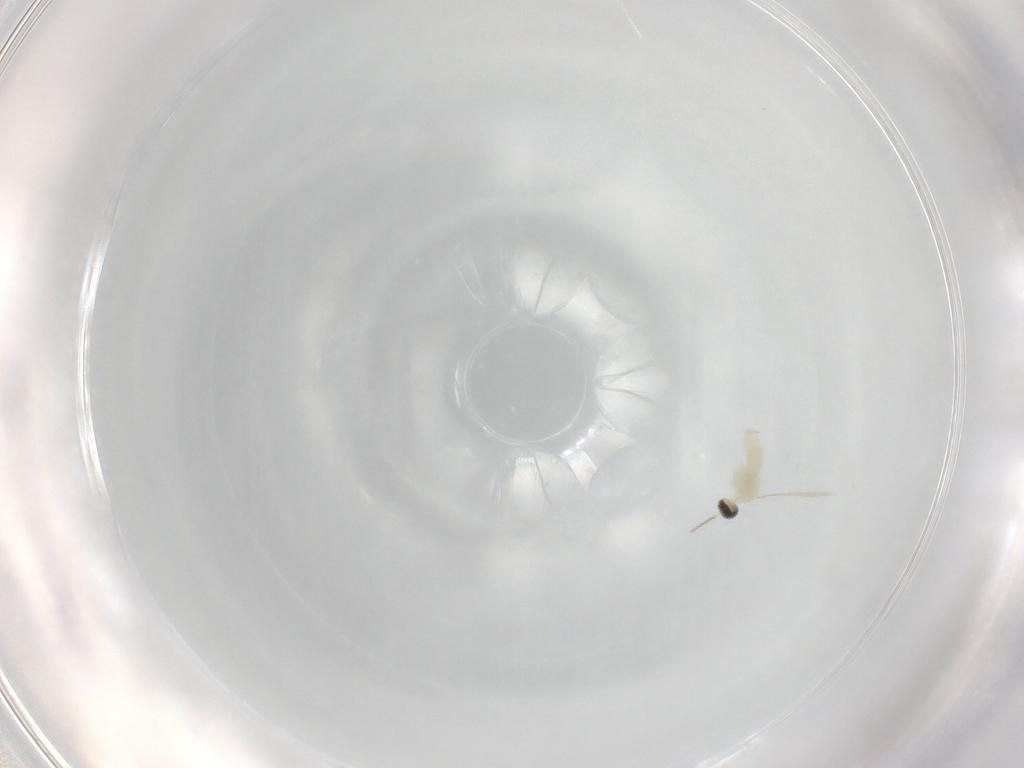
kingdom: Animalia
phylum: Arthropoda
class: Insecta
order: Diptera
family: Cecidomyiidae
